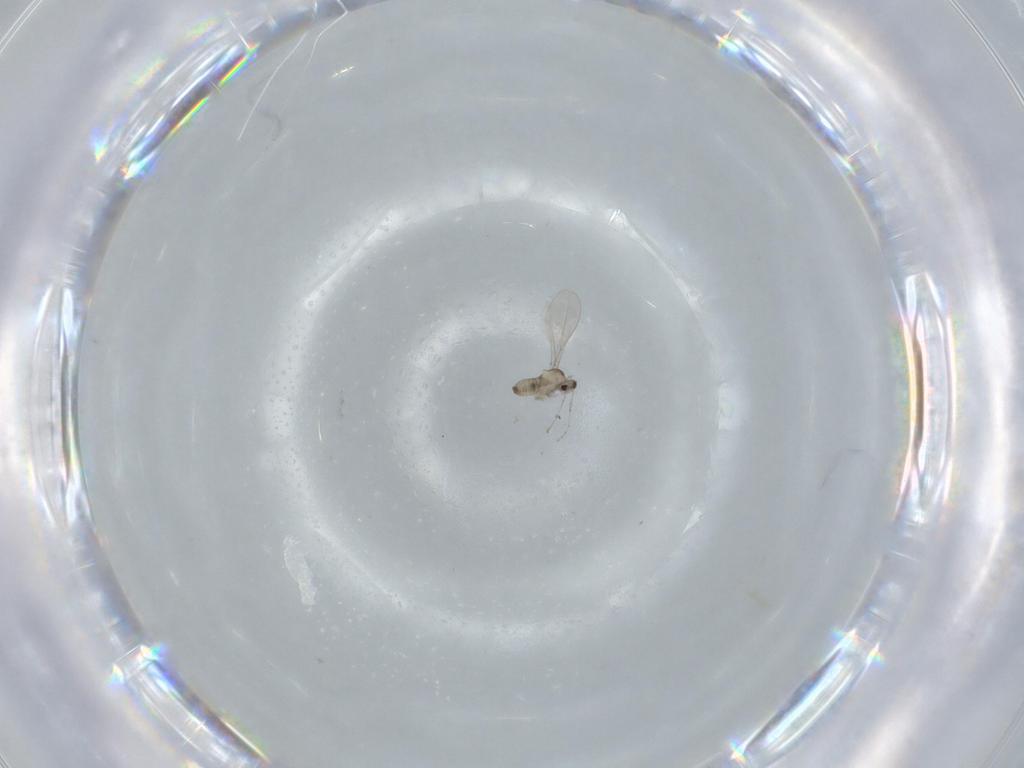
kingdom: Animalia
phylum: Arthropoda
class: Insecta
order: Diptera
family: Cecidomyiidae
